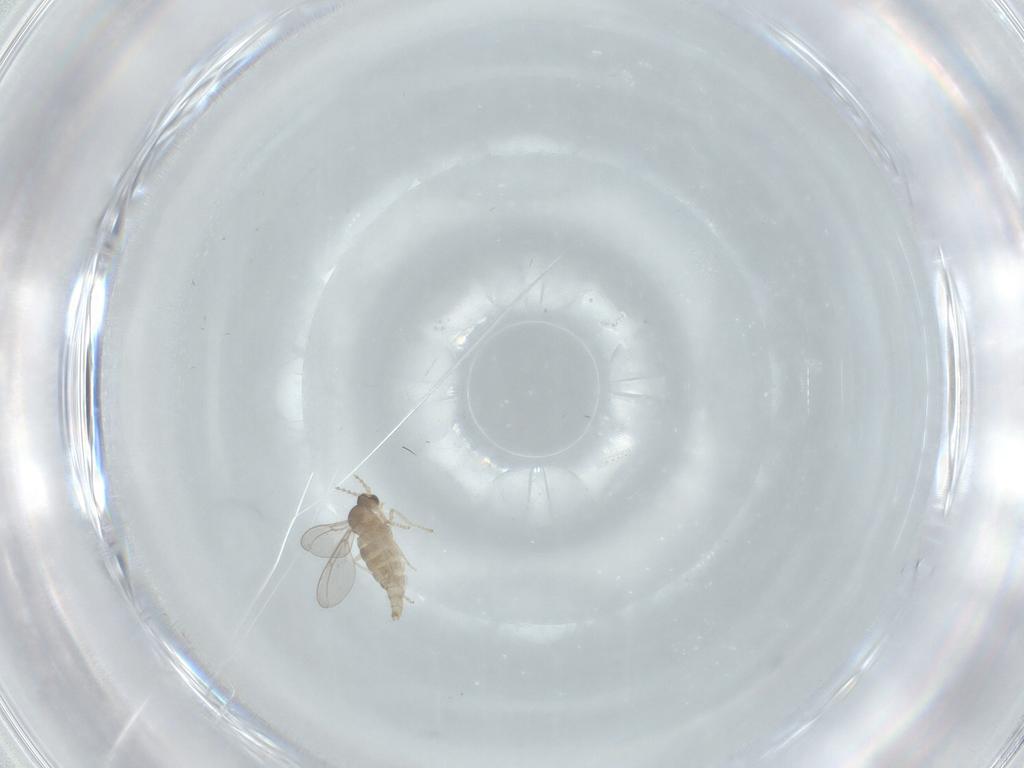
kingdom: Animalia
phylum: Arthropoda
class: Insecta
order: Diptera
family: Cecidomyiidae
